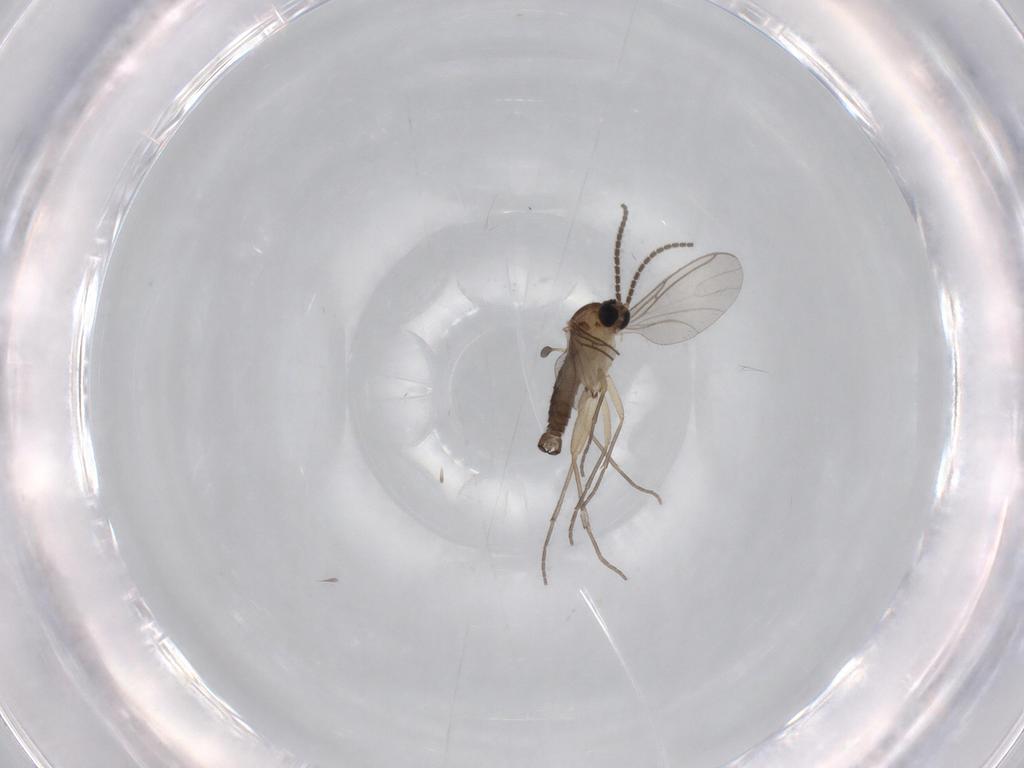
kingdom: Animalia
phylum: Arthropoda
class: Insecta
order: Diptera
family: Sciaridae
